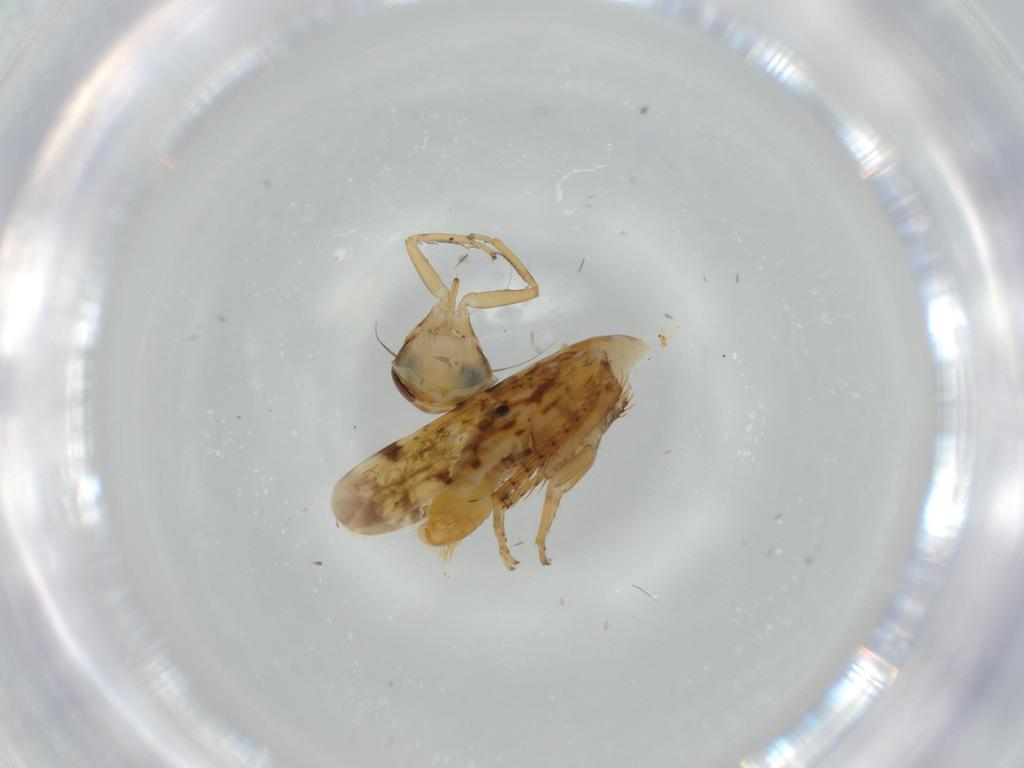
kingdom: Animalia
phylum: Arthropoda
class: Insecta
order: Hemiptera
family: Cicadellidae
